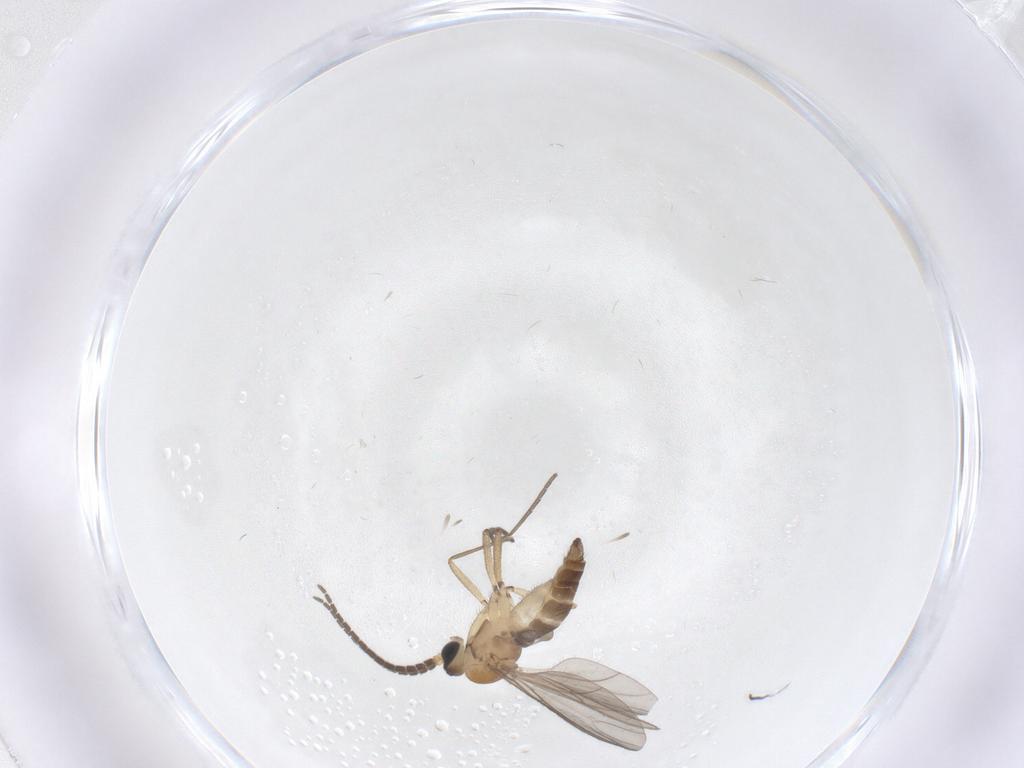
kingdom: Animalia
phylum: Arthropoda
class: Insecta
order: Diptera
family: Sciaridae
